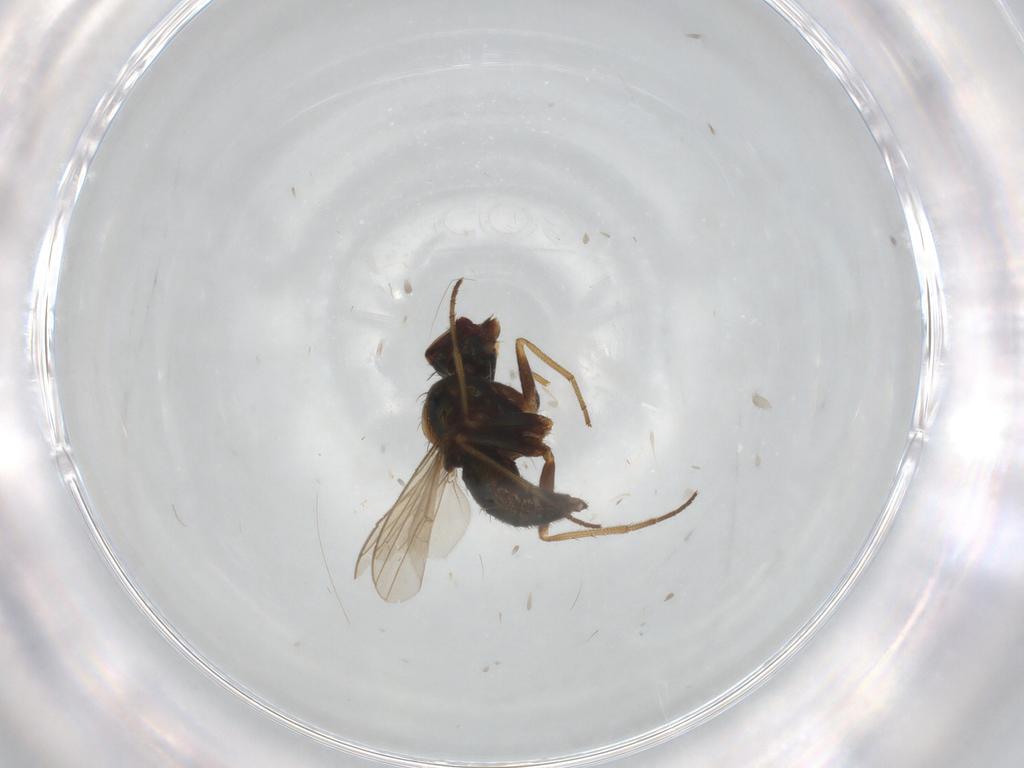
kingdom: Animalia
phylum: Arthropoda
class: Insecta
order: Diptera
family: Dolichopodidae
